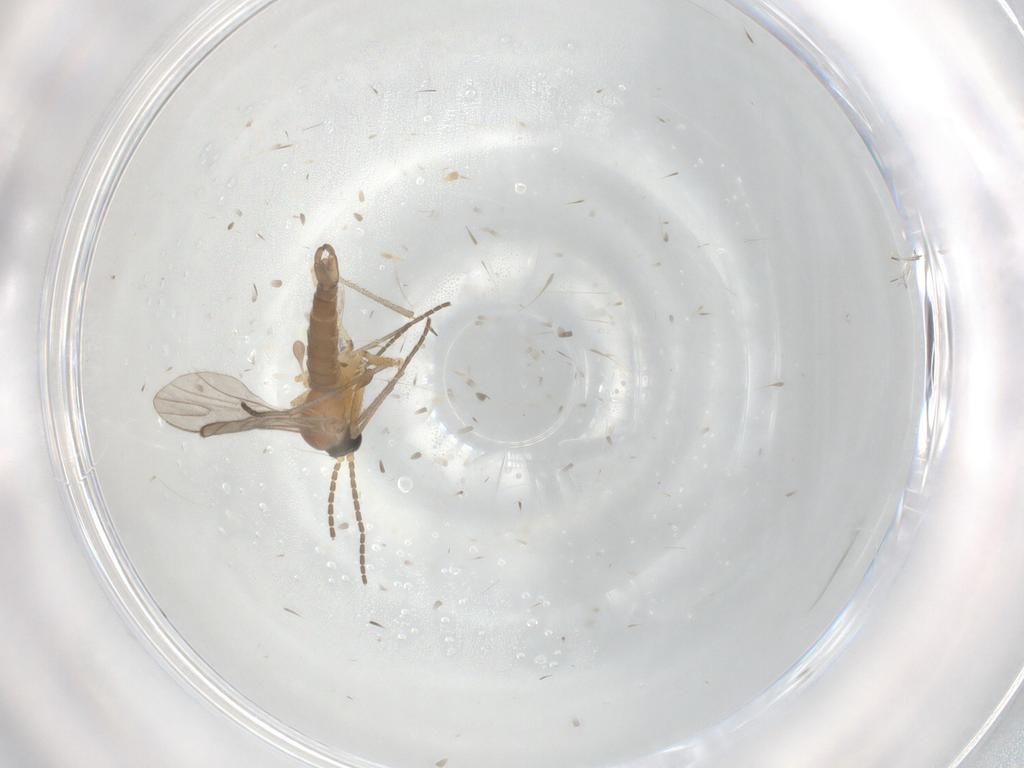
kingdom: Animalia
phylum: Arthropoda
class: Insecta
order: Diptera
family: Sciaridae
